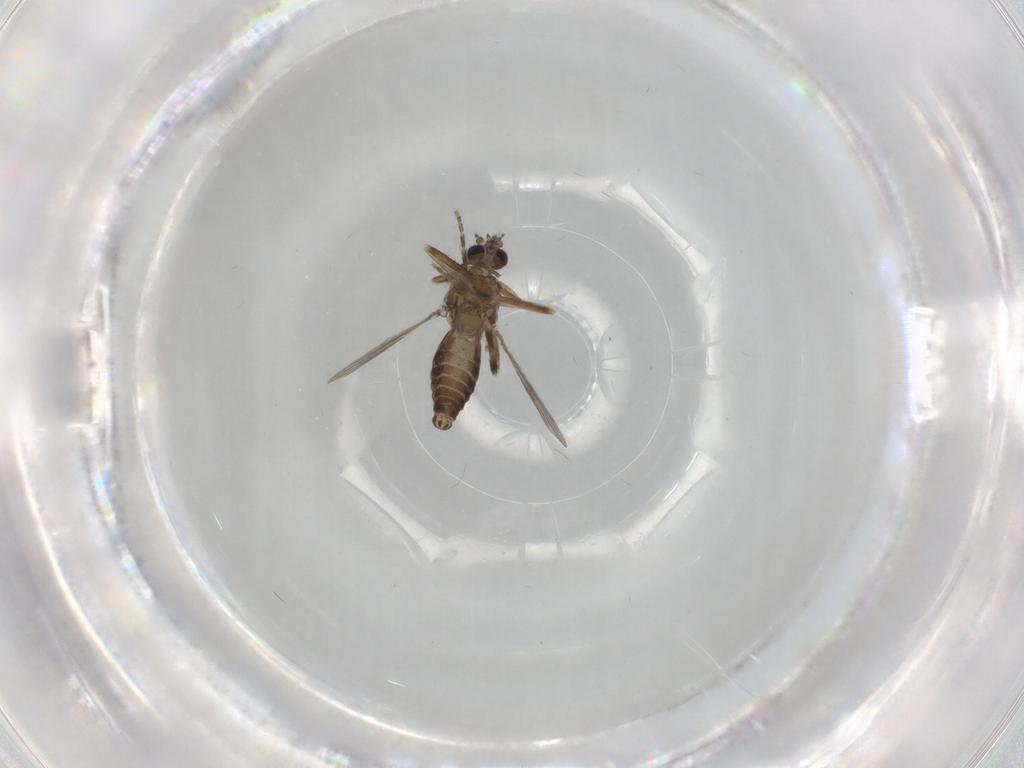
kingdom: Animalia
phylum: Arthropoda
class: Insecta
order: Diptera
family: Ceratopogonidae
